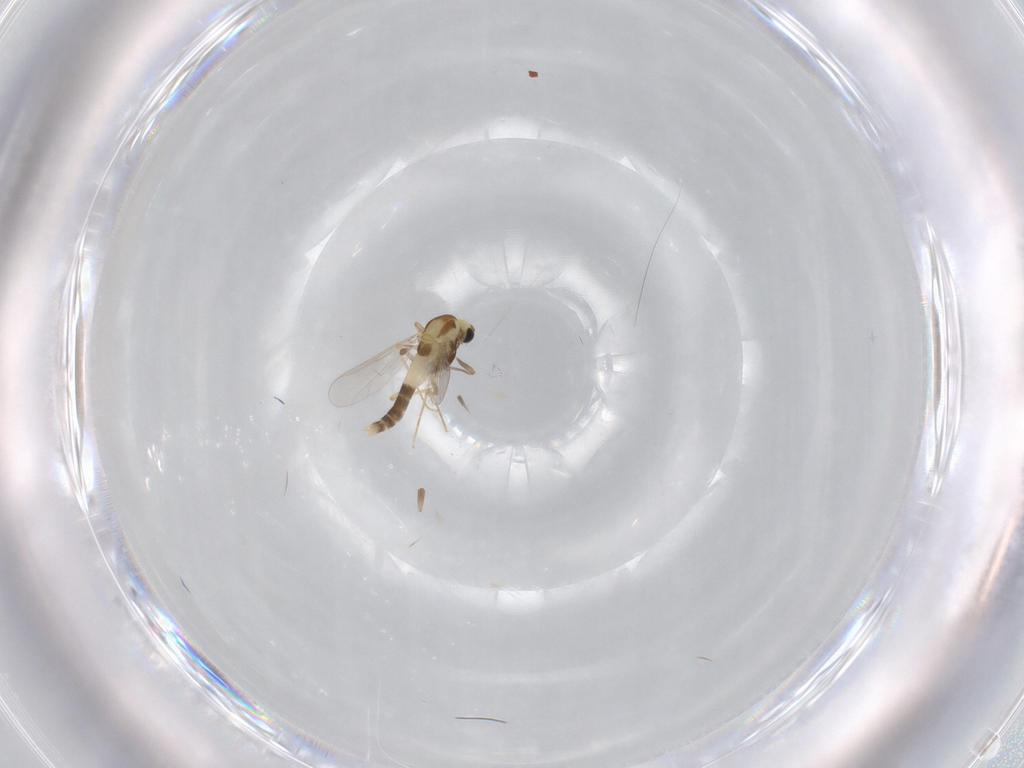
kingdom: Animalia
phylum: Arthropoda
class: Insecta
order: Diptera
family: Chironomidae
